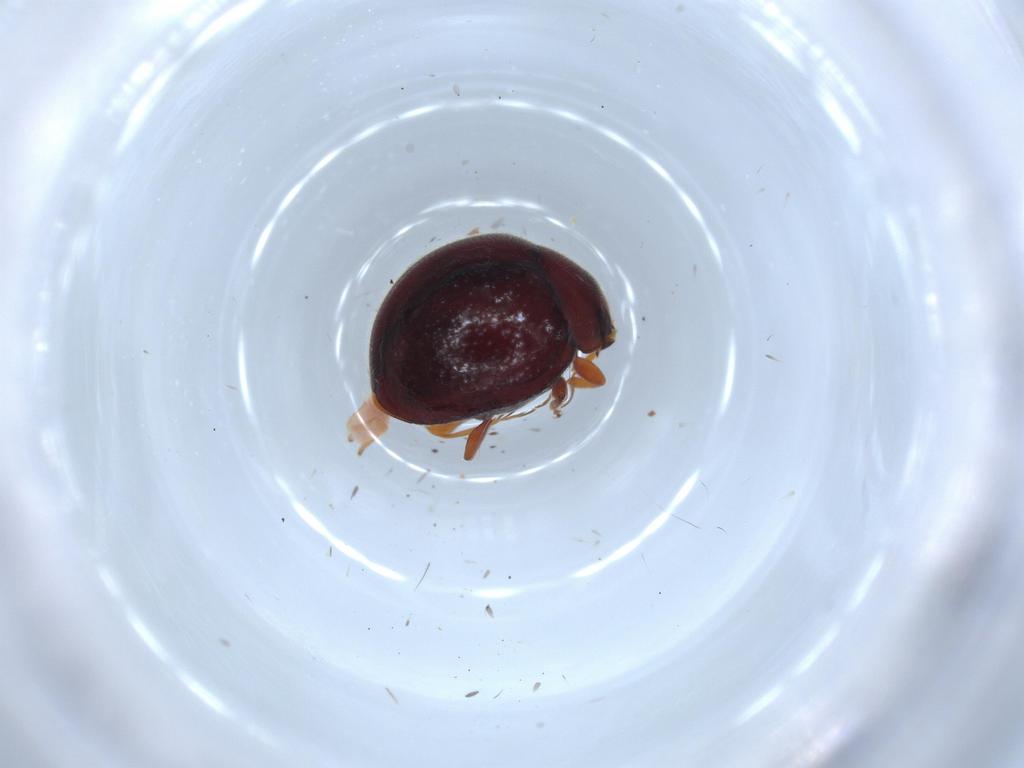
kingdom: Animalia
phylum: Arthropoda
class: Insecta
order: Coleoptera
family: Coccinellidae
